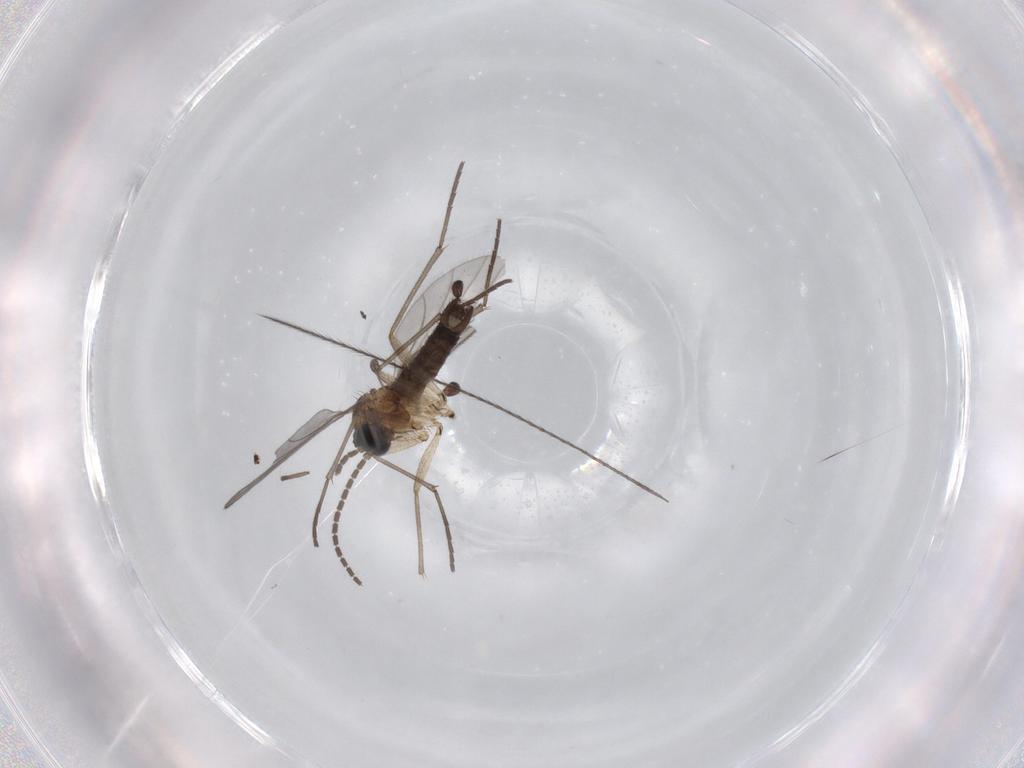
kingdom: Animalia
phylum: Arthropoda
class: Insecta
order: Diptera
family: Sciaridae
